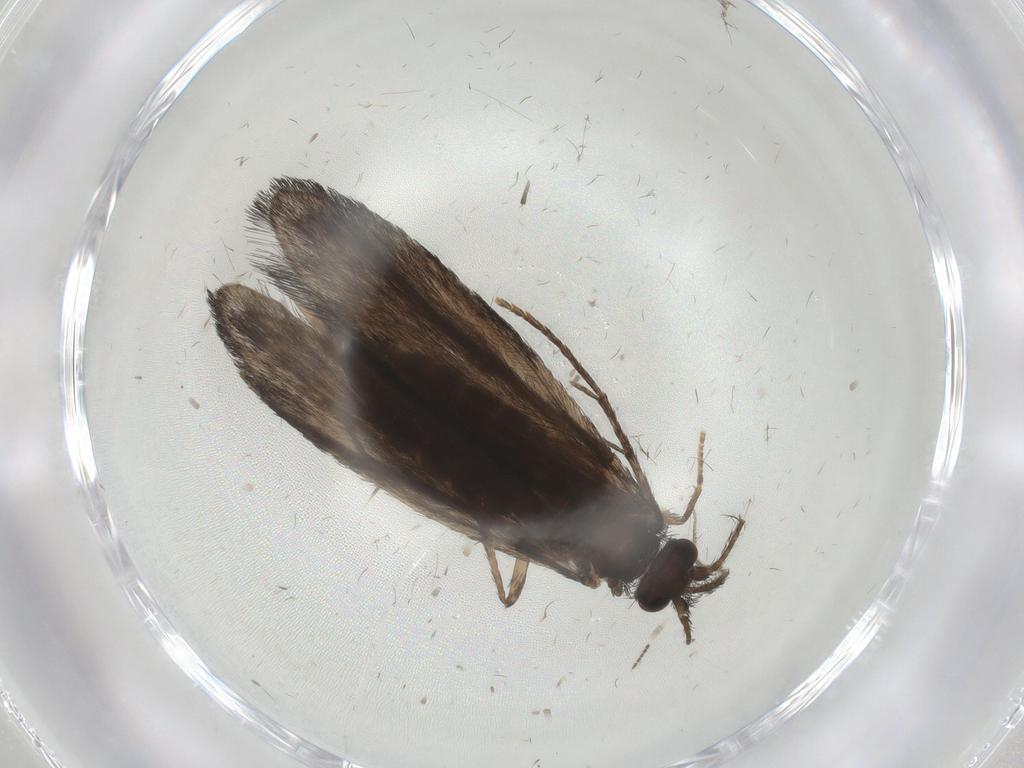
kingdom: Animalia
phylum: Arthropoda
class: Insecta
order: Trichoptera
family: Xiphocentronidae
